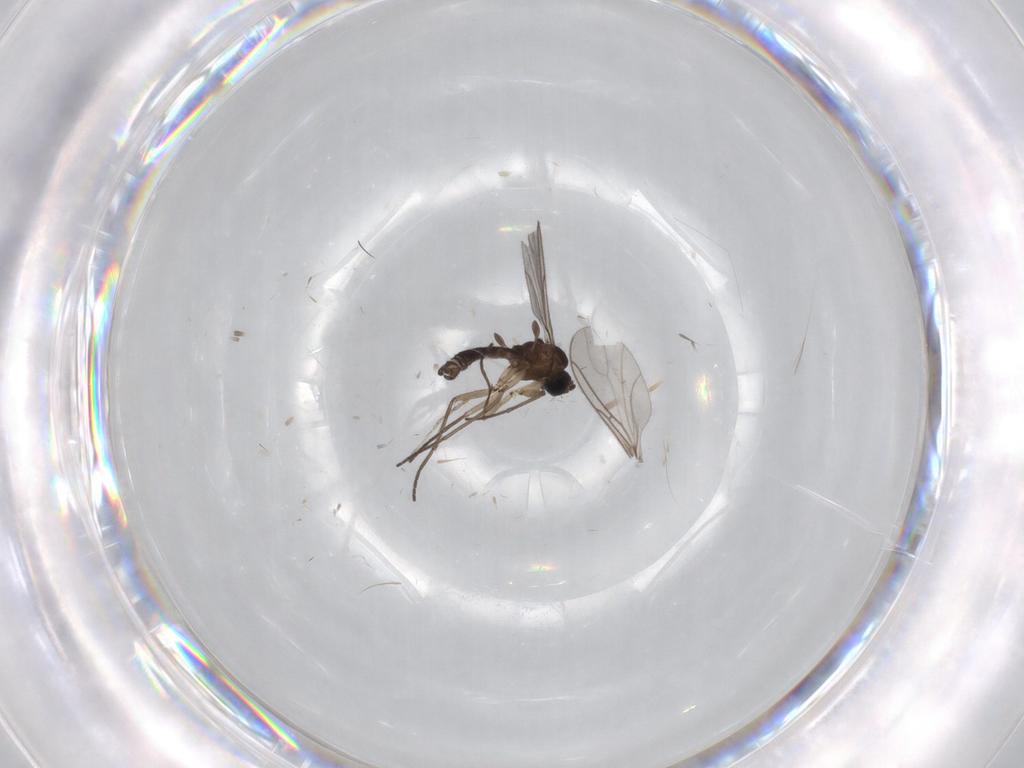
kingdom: Animalia
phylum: Arthropoda
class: Insecta
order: Diptera
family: Sciaridae
